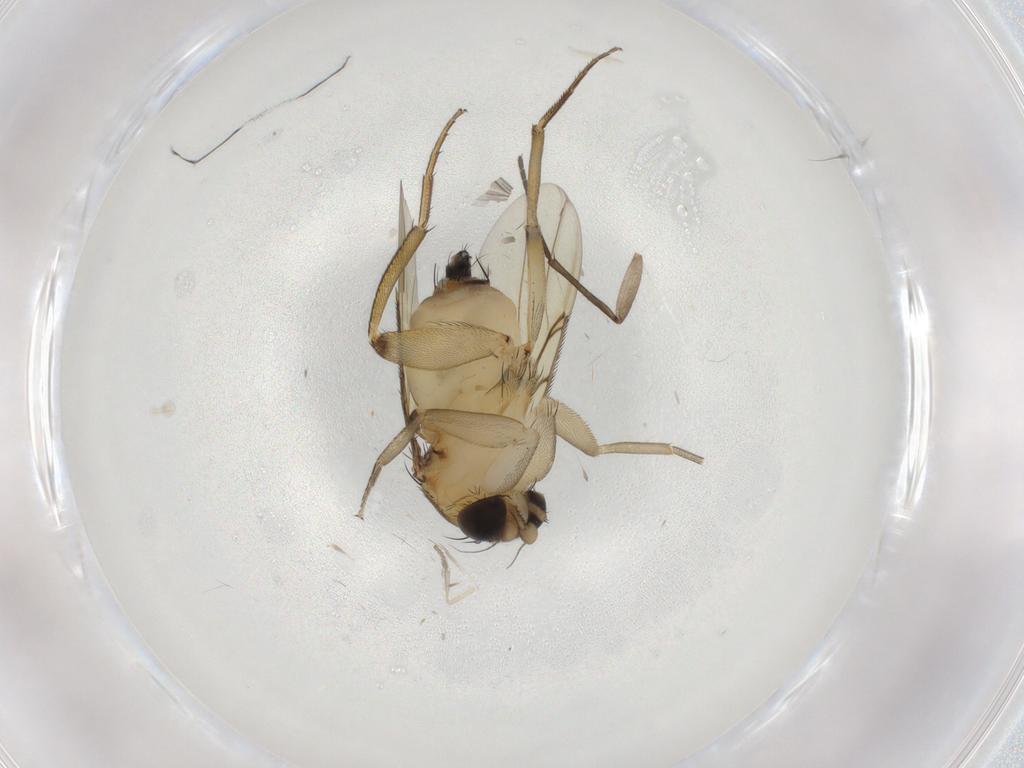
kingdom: Animalia
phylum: Arthropoda
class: Insecta
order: Diptera
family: Phoridae
